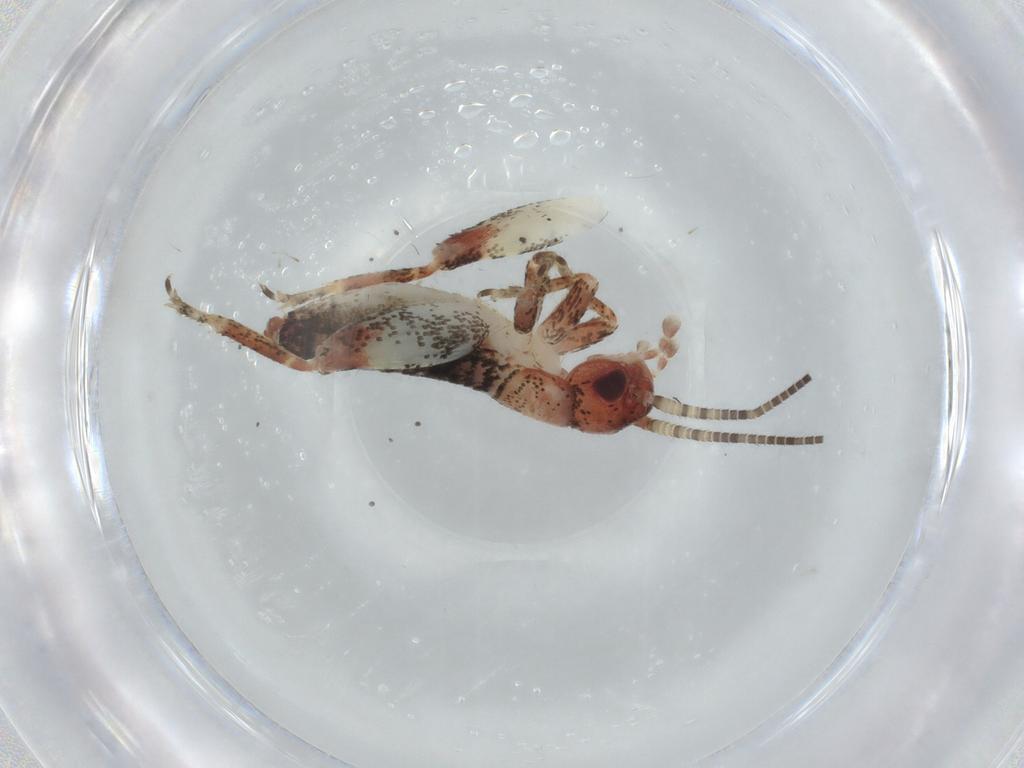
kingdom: Animalia
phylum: Arthropoda
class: Insecta
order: Orthoptera
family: Mogoplistidae
